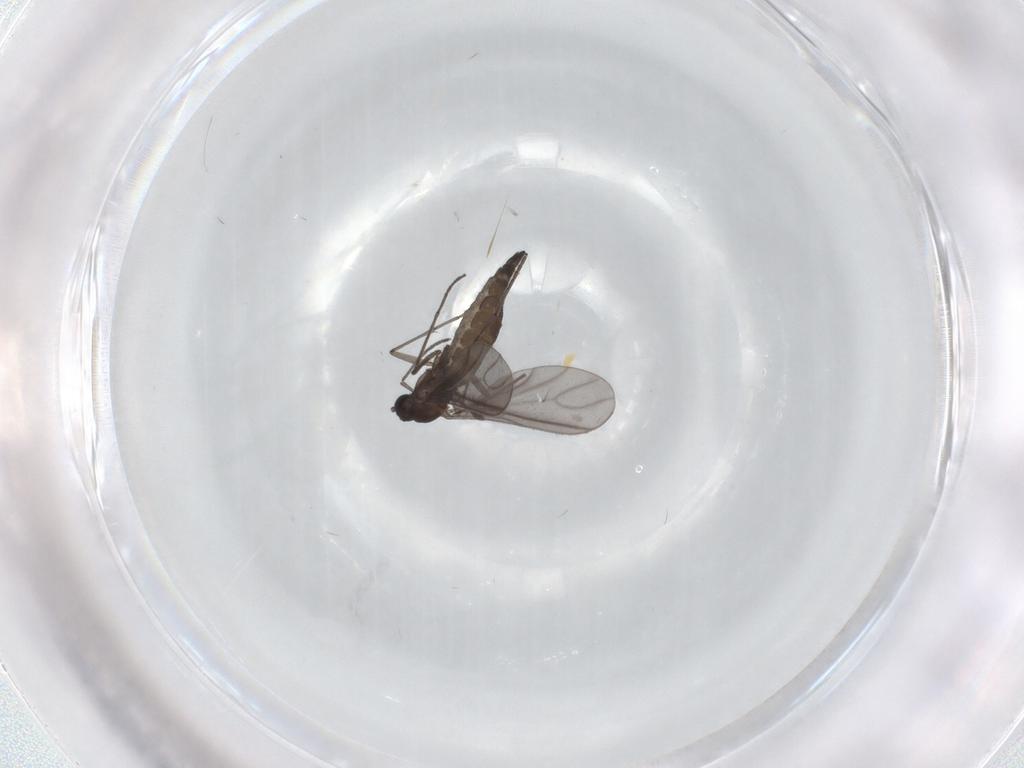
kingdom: Animalia
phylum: Arthropoda
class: Insecta
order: Diptera
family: Sciaridae
